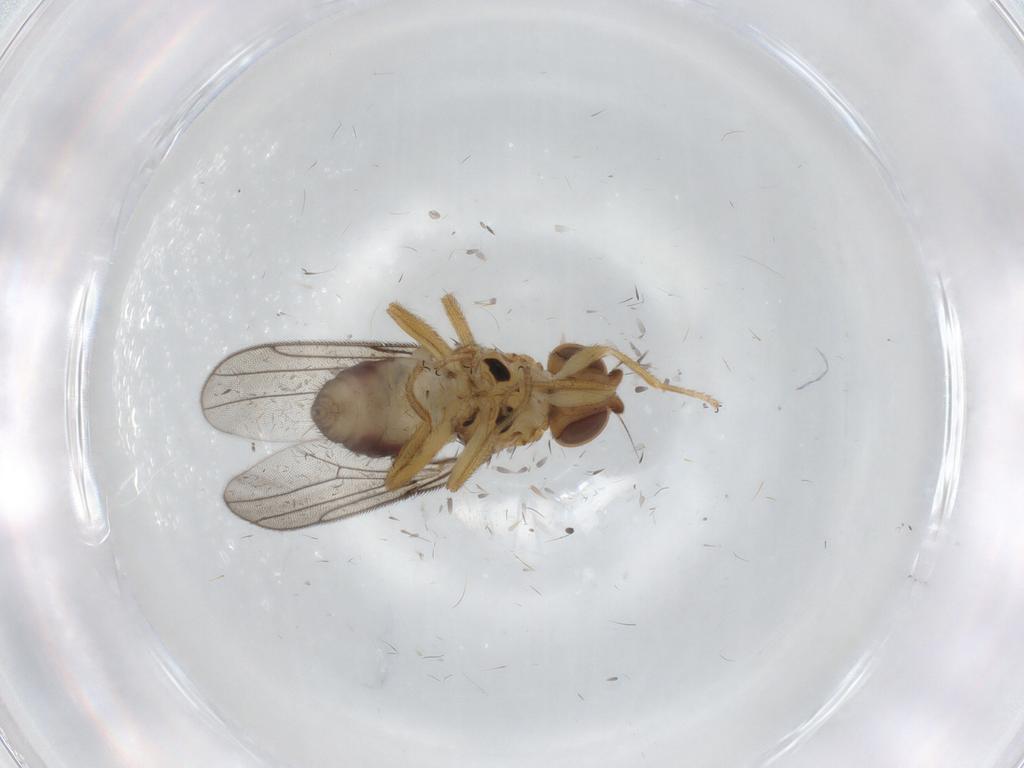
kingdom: Animalia
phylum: Arthropoda
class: Insecta
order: Diptera
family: Chloropidae
